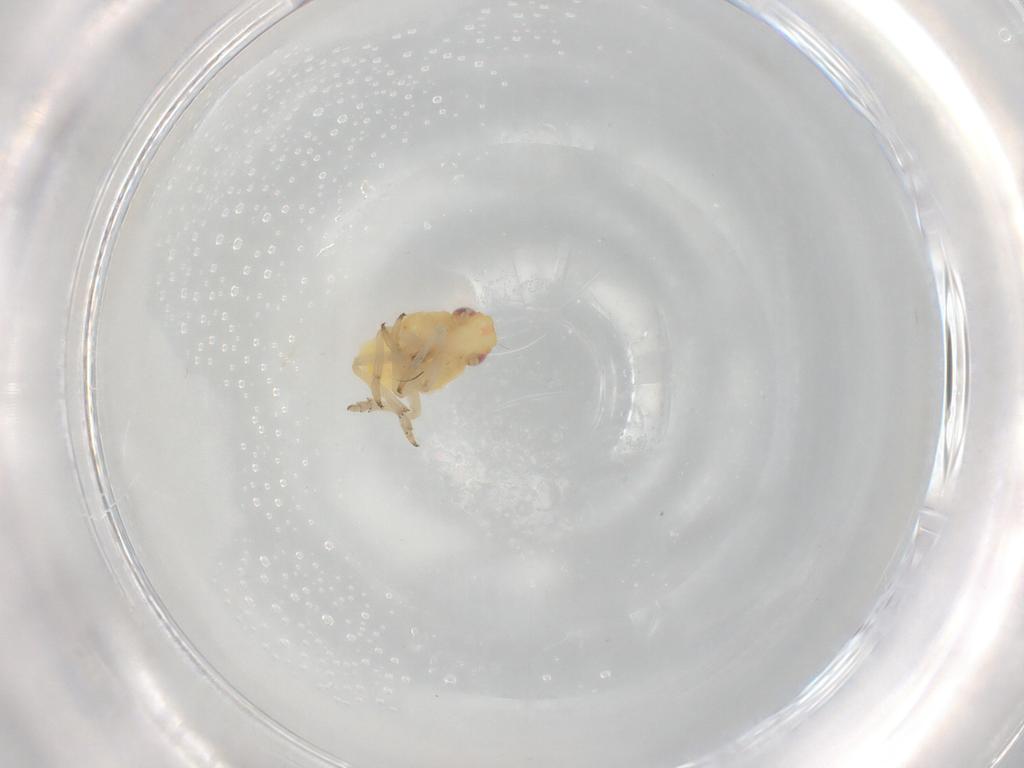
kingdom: Animalia
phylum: Arthropoda
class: Insecta
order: Hemiptera
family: Caliscelidae
